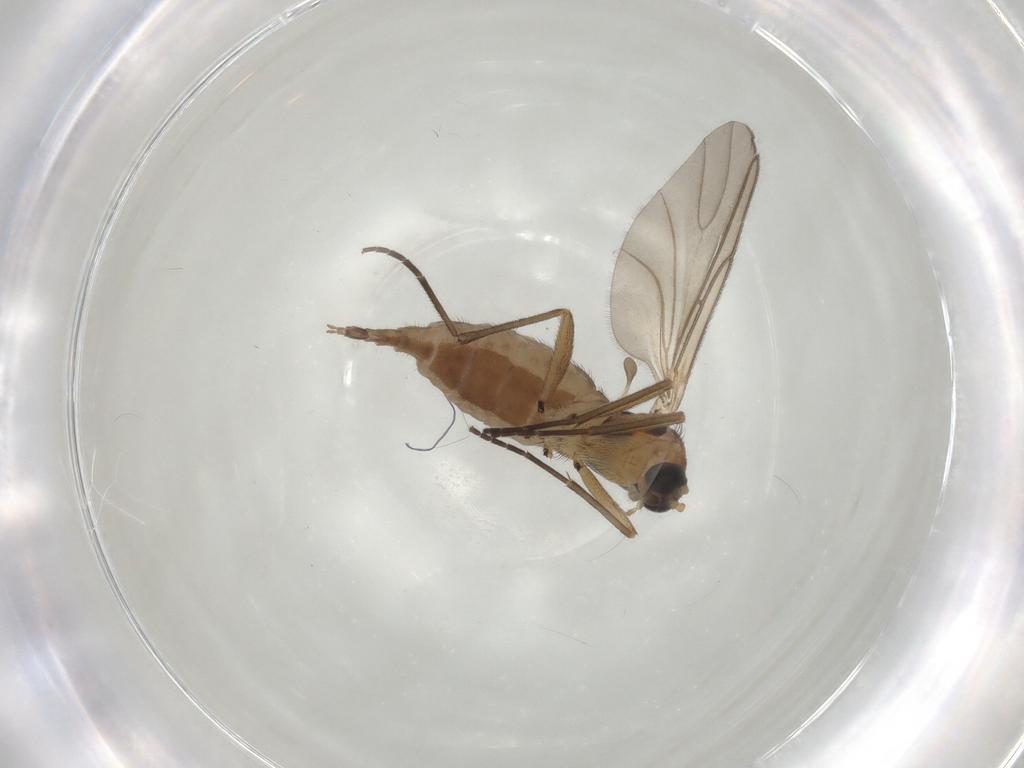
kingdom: Animalia
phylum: Arthropoda
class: Insecta
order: Diptera
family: Sciaridae
